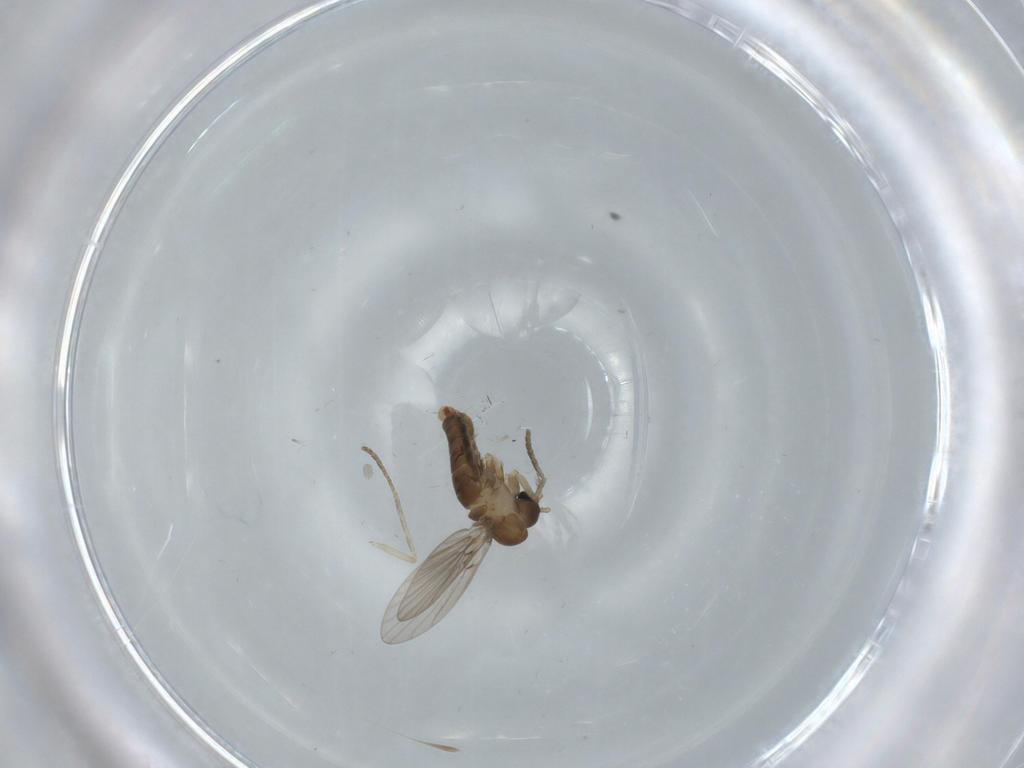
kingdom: Animalia
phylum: Arthropoda
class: Insecta
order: Diptera
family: Sciaridae
